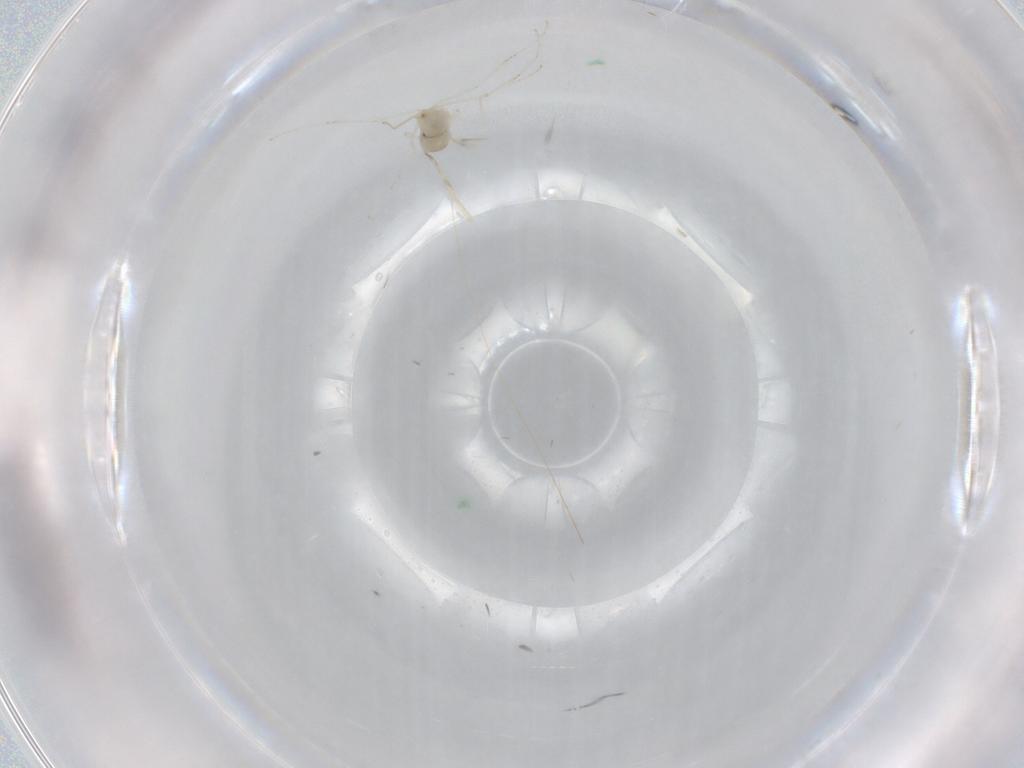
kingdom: Animalia
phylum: Arthropoda
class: Insecta
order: Diptera
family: Cecidomyiidae
